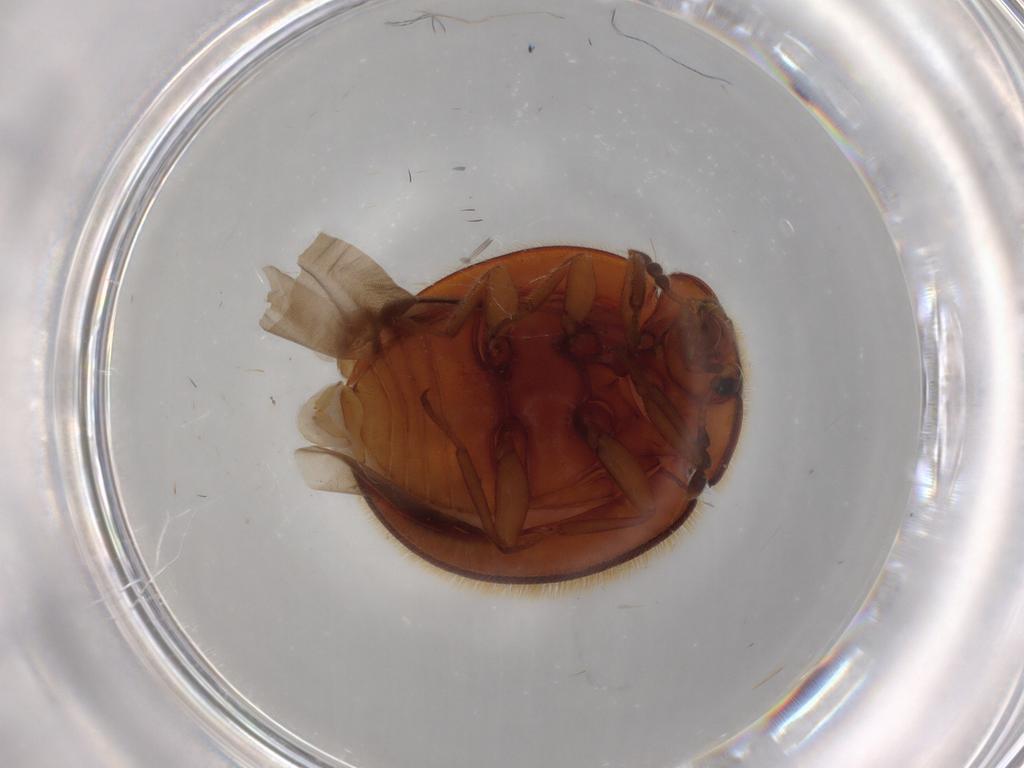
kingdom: Animalia
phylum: Arthropoda
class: Insecta
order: Coleoptera
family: Anamorphidae
